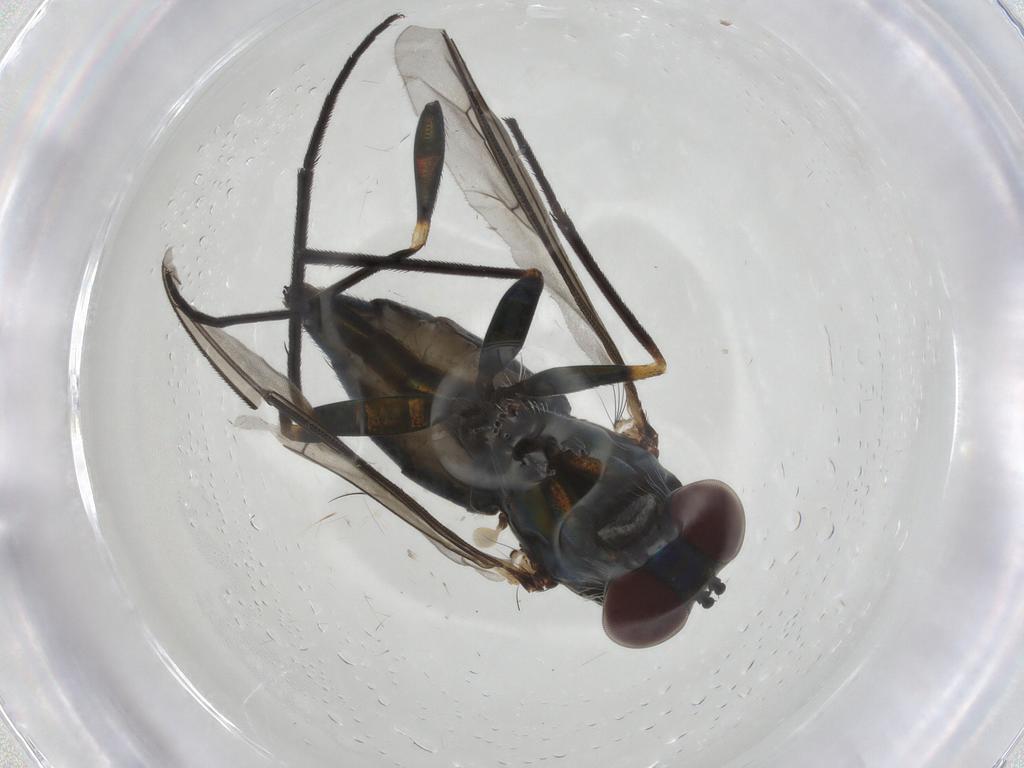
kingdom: Animalia
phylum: Arthropoda
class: Insecta
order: Diptera
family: Dolichopodidae
